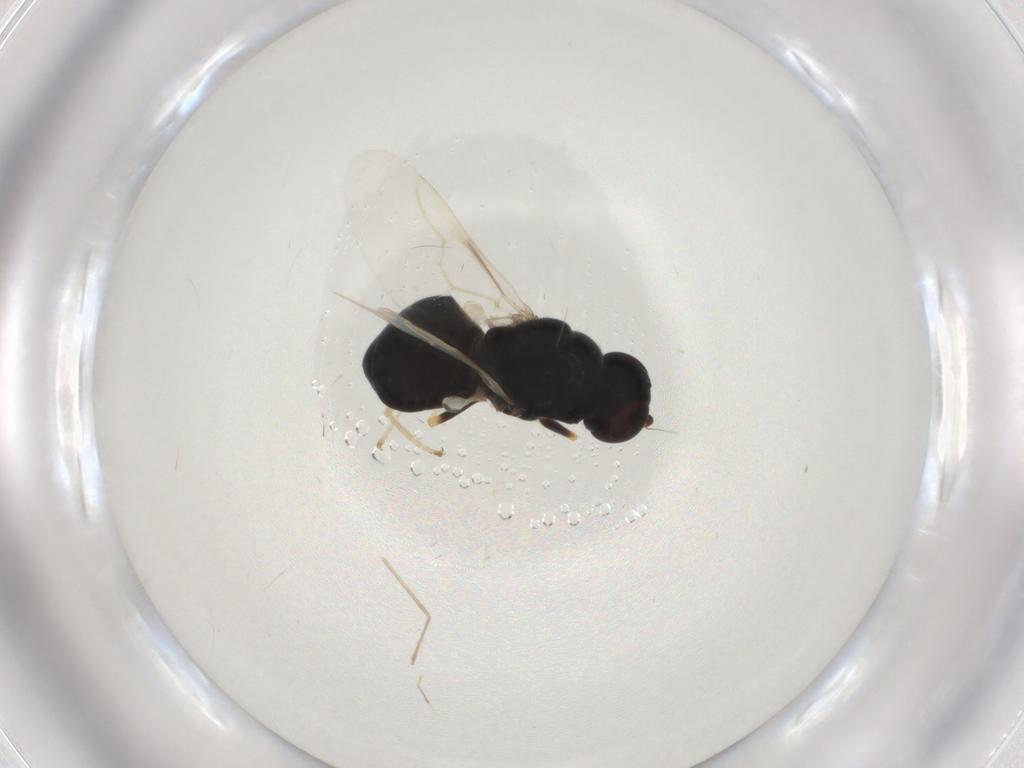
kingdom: Animalia
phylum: Arthropoda
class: Insecta
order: Diptera
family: Stratiomyidae
